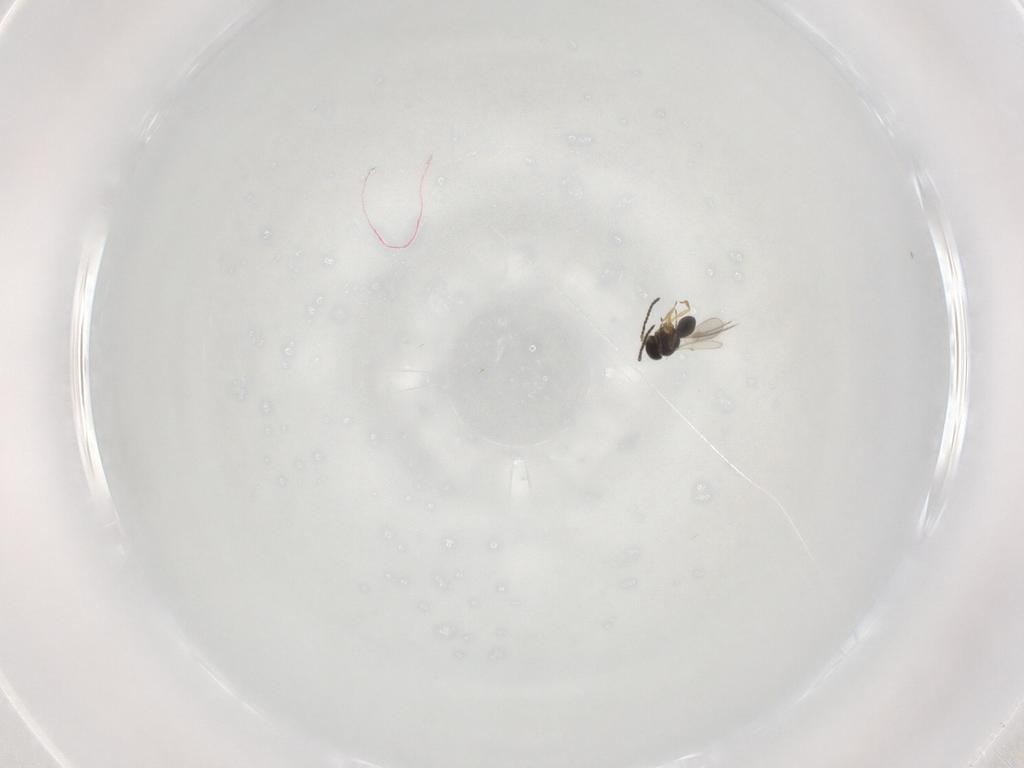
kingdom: Animalia
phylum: Arthropoda
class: Insecta
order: Hymenoptera
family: Scelionidae
